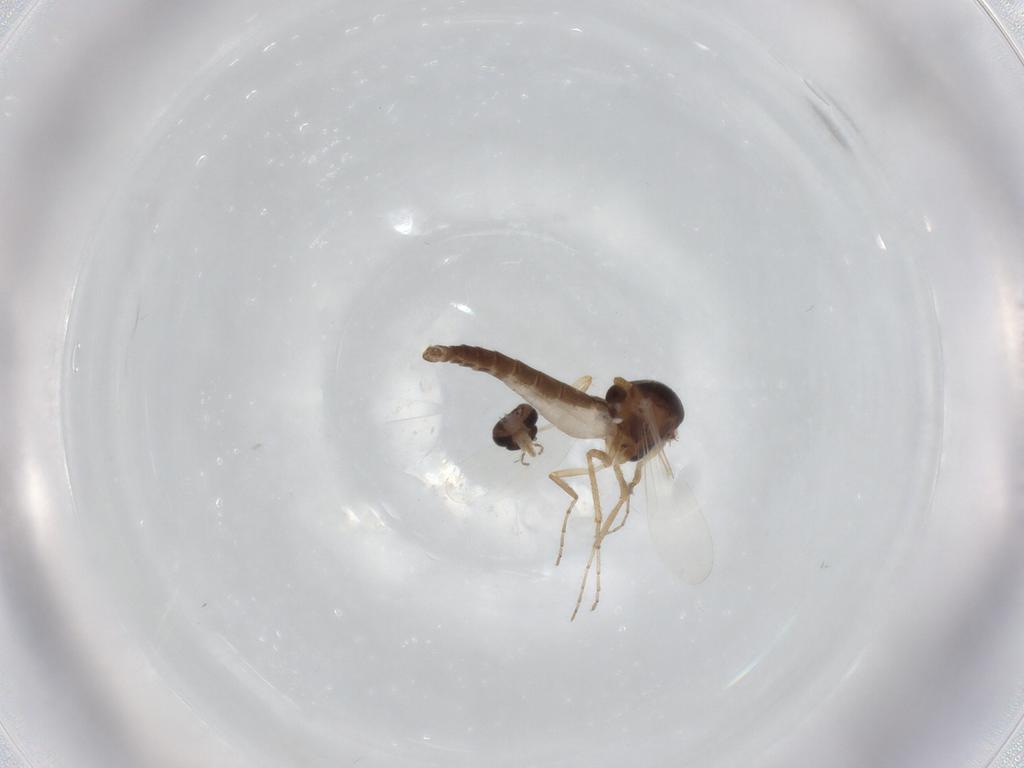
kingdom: Animalia
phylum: Arthropoda
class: Insecta
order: Diptera
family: Ceratopogonidae
